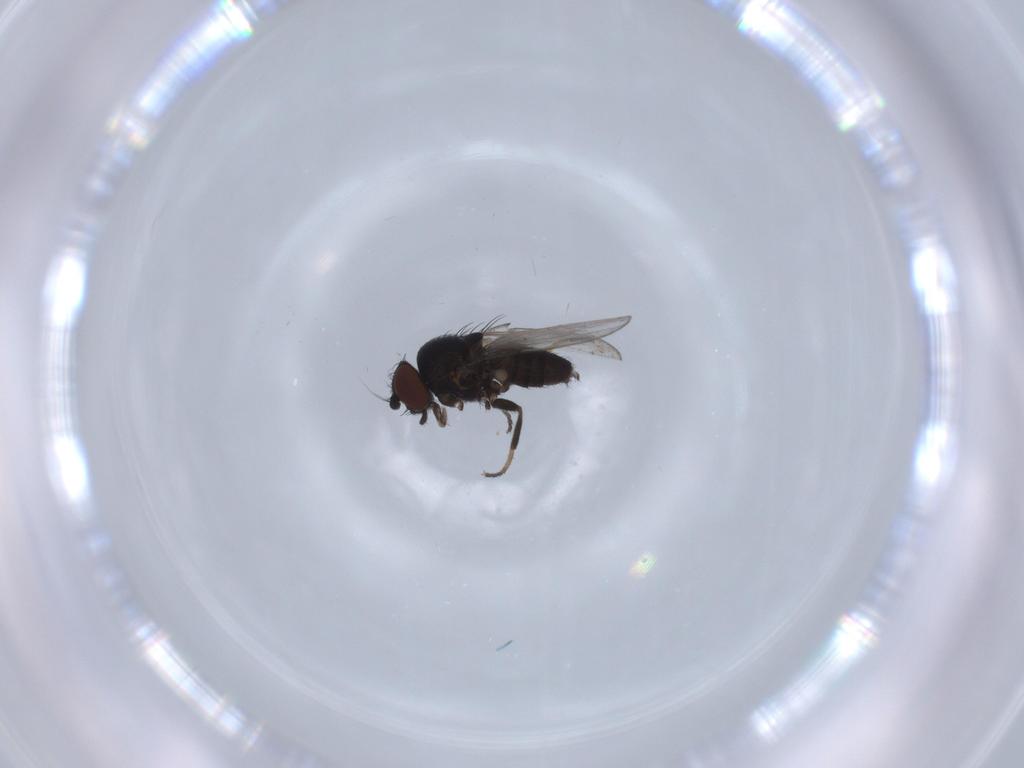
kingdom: Animalia
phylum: Arthropoda
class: Insecta
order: Diptera
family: Milichiidae
